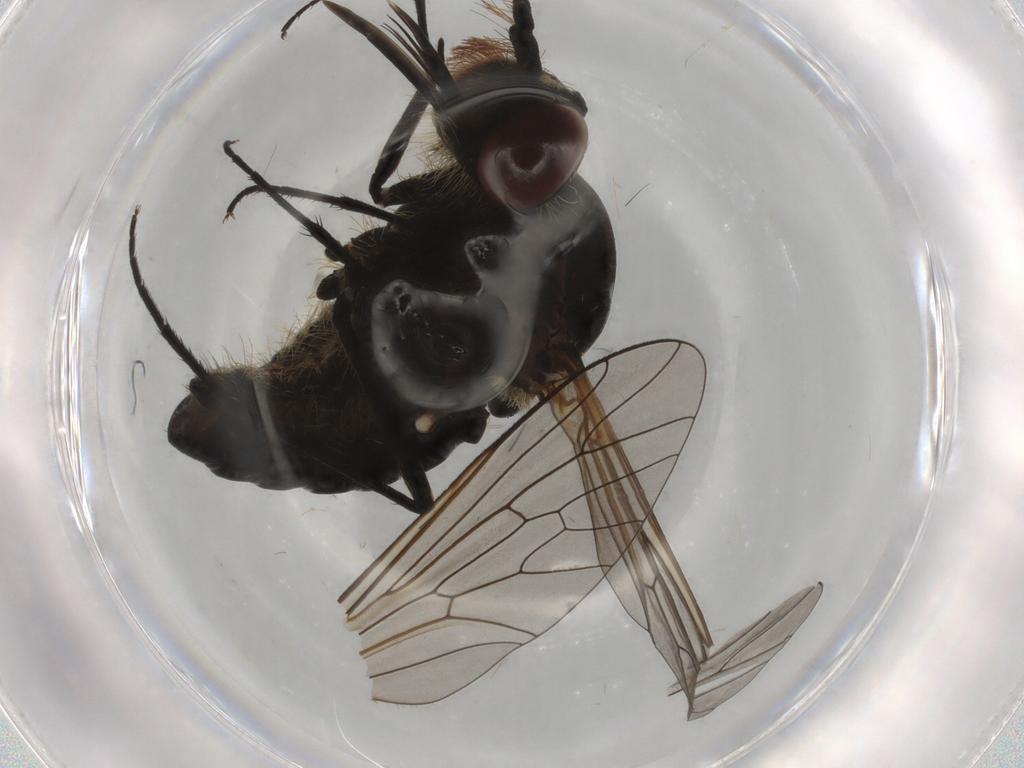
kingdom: Animalia
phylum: Arthropoda
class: Insecta
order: Diptera
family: Bombyliidae
